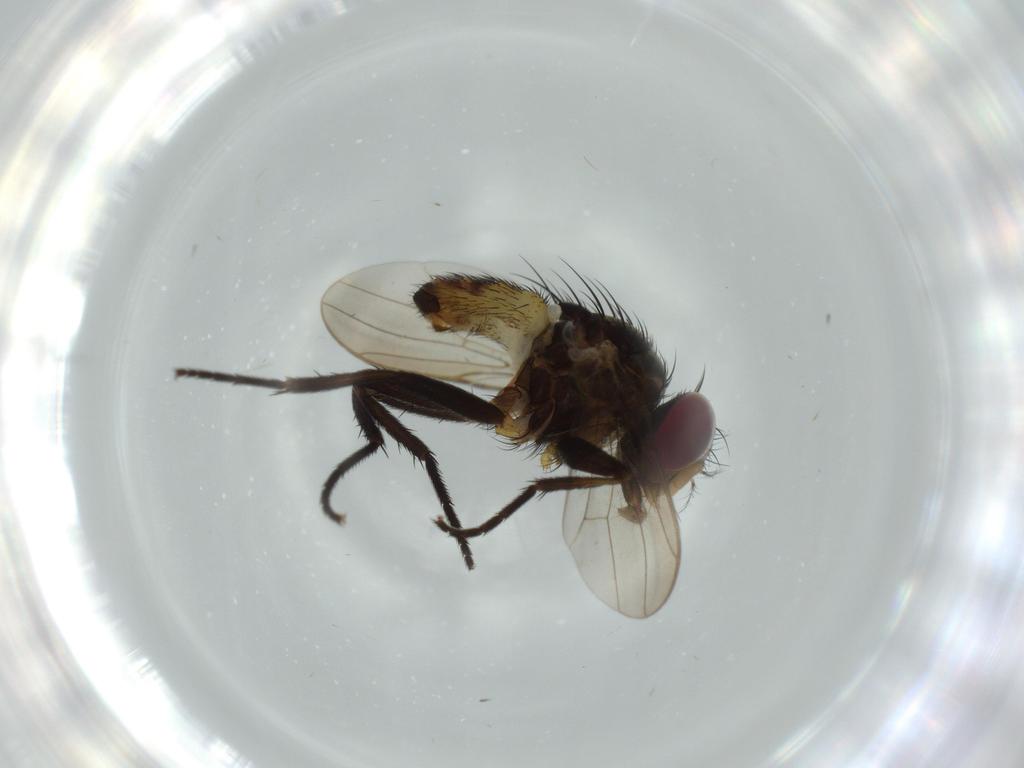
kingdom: Animalia
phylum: Arthropoda
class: Insecta
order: Diptera
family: Anthomyiidae
